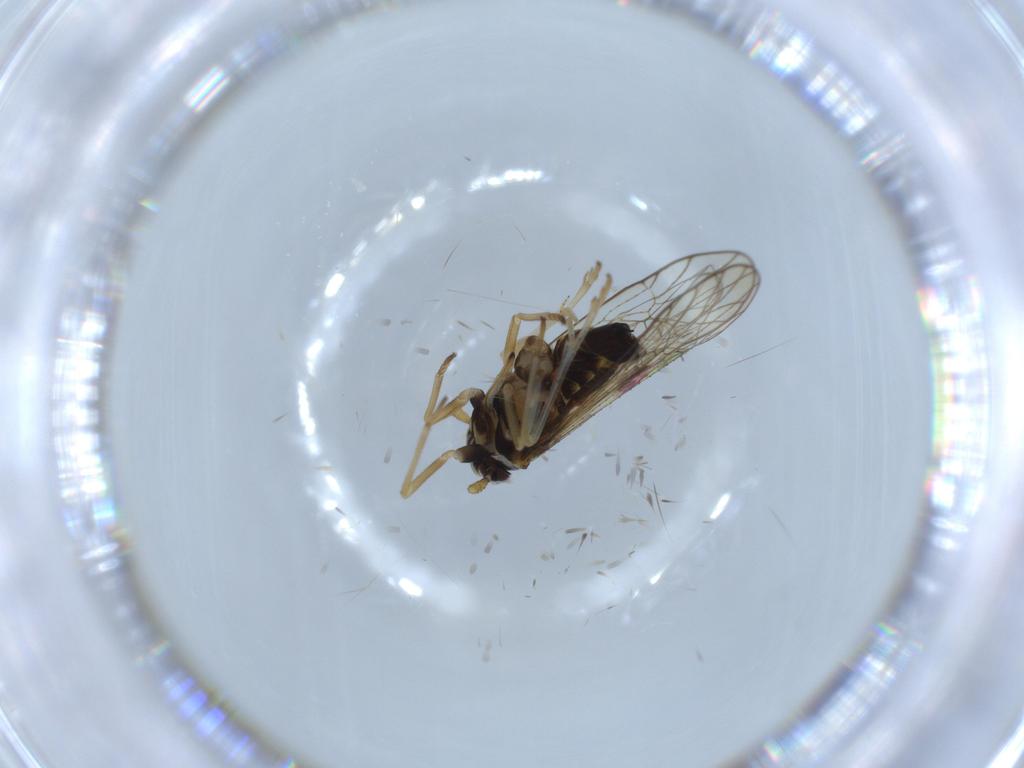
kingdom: Animalia
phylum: Arthropoda
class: Insecta
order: Hemiptera
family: Cicadellidae
